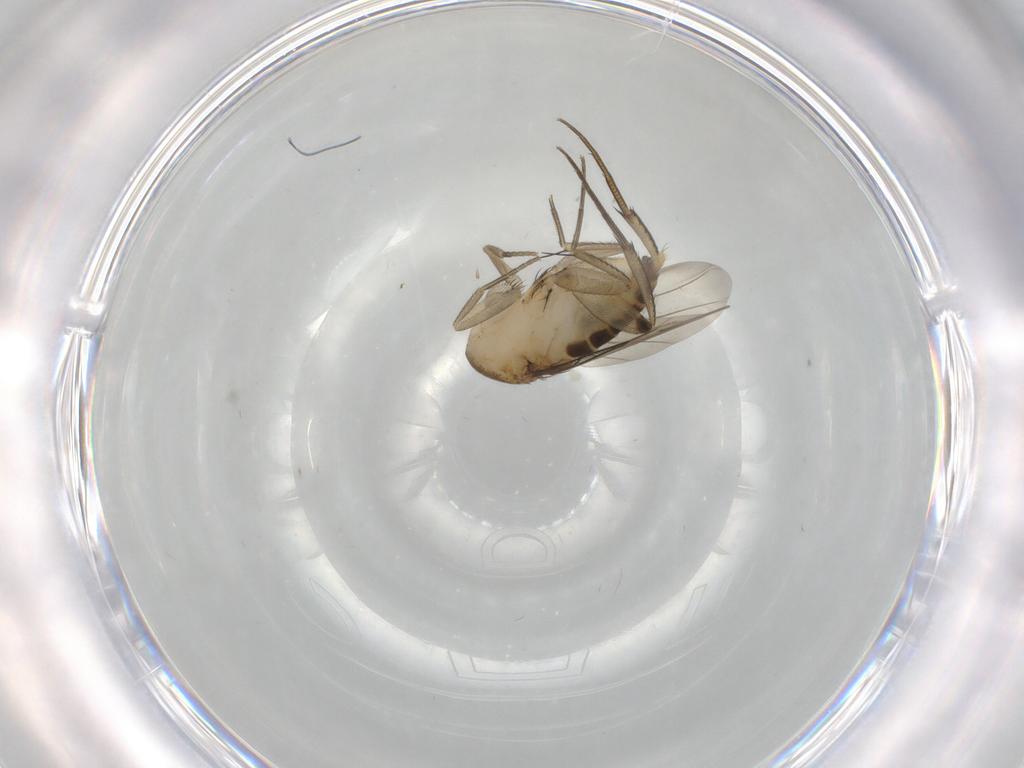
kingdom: Animalia
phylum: Arthropoda
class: Insecta
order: Diptera
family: Phoridae
